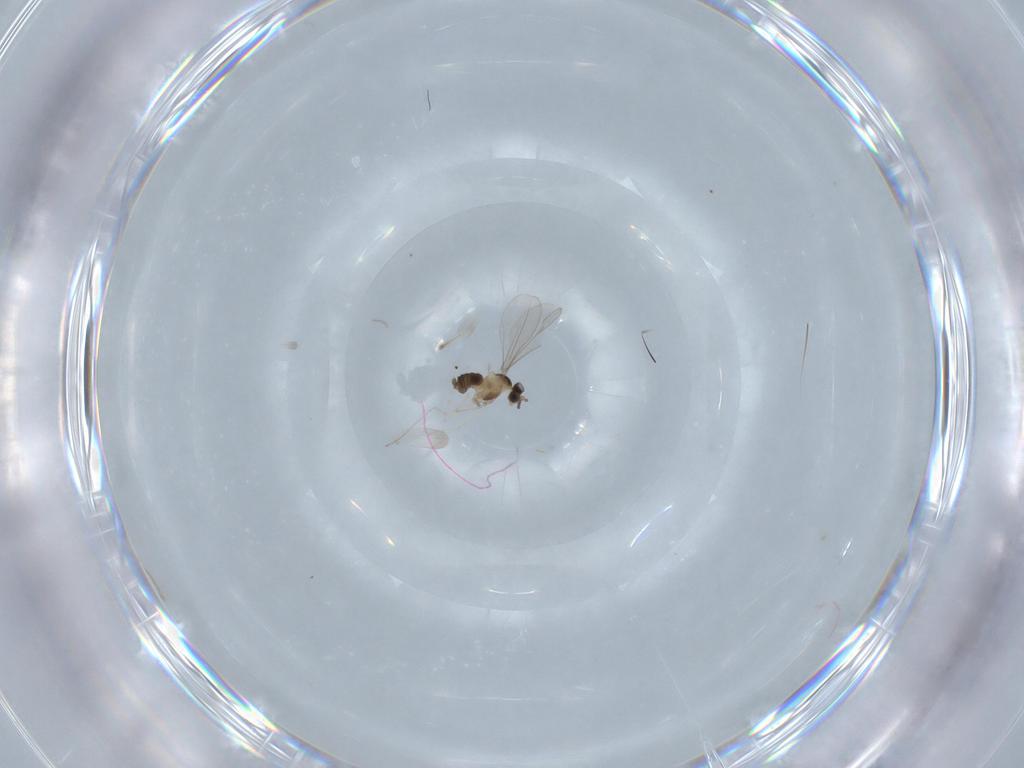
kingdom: Animalia
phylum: Arthropoda
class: Insecta
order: Diptera
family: Cecidomyiidae
